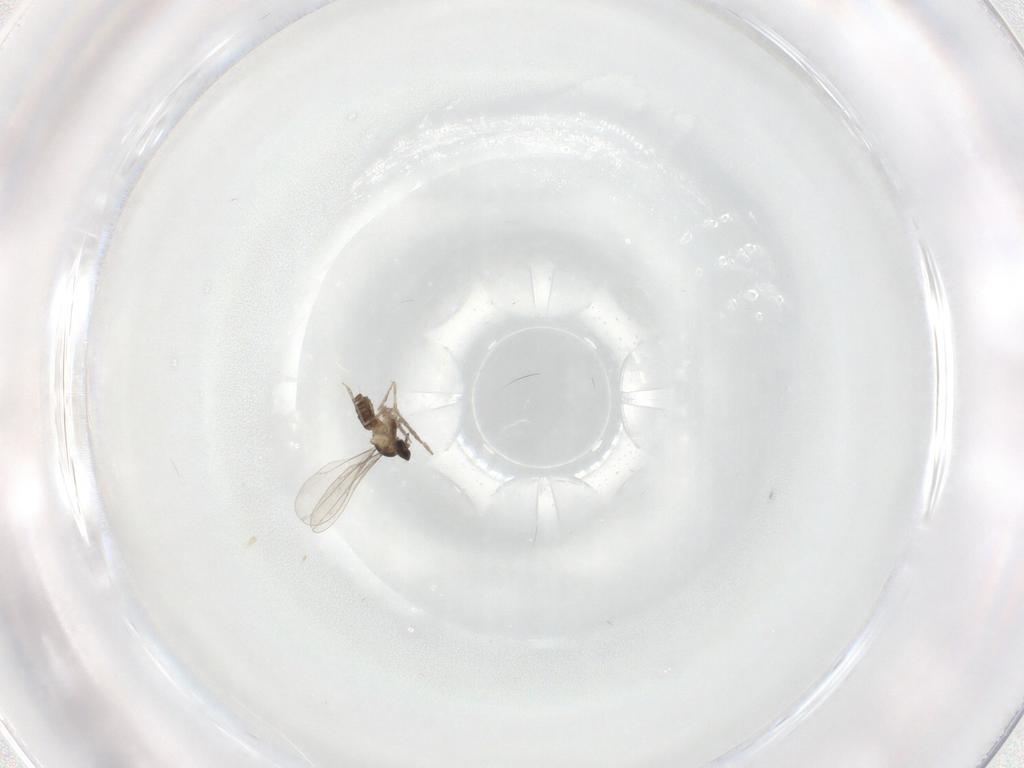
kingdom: Animalia
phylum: Arthropoda
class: Insecta
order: Diptera
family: Cecidomyiidae
